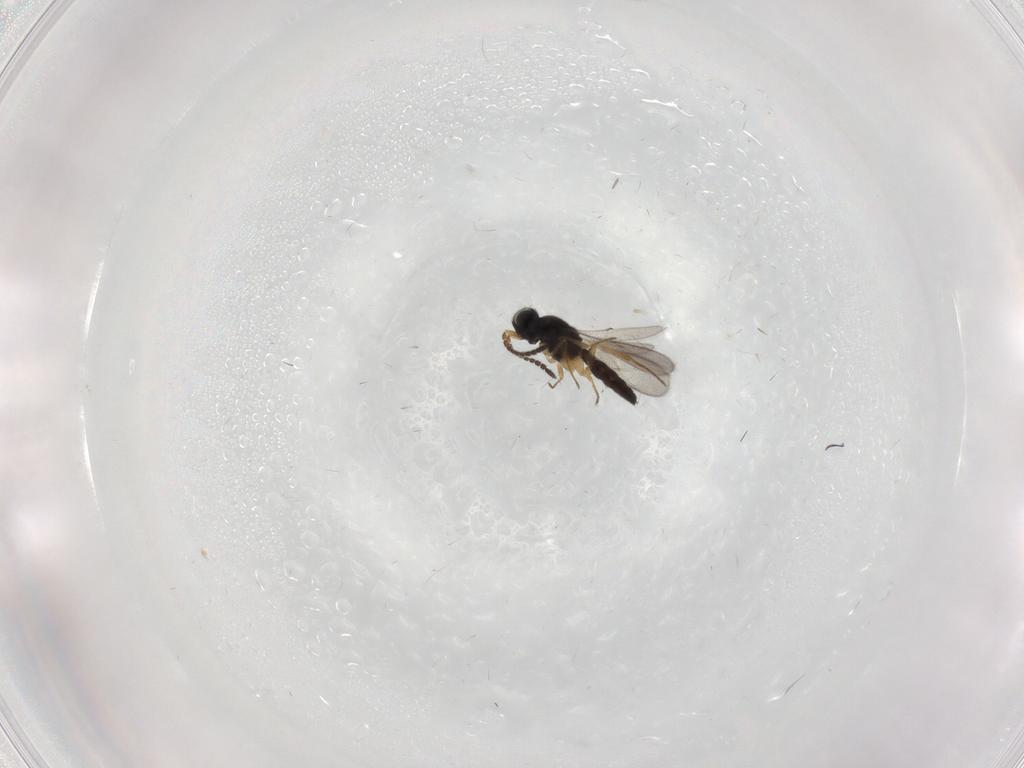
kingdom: Animalia
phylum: Arthropoda
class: Insecta
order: Hymenoptera
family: Scelionidae
